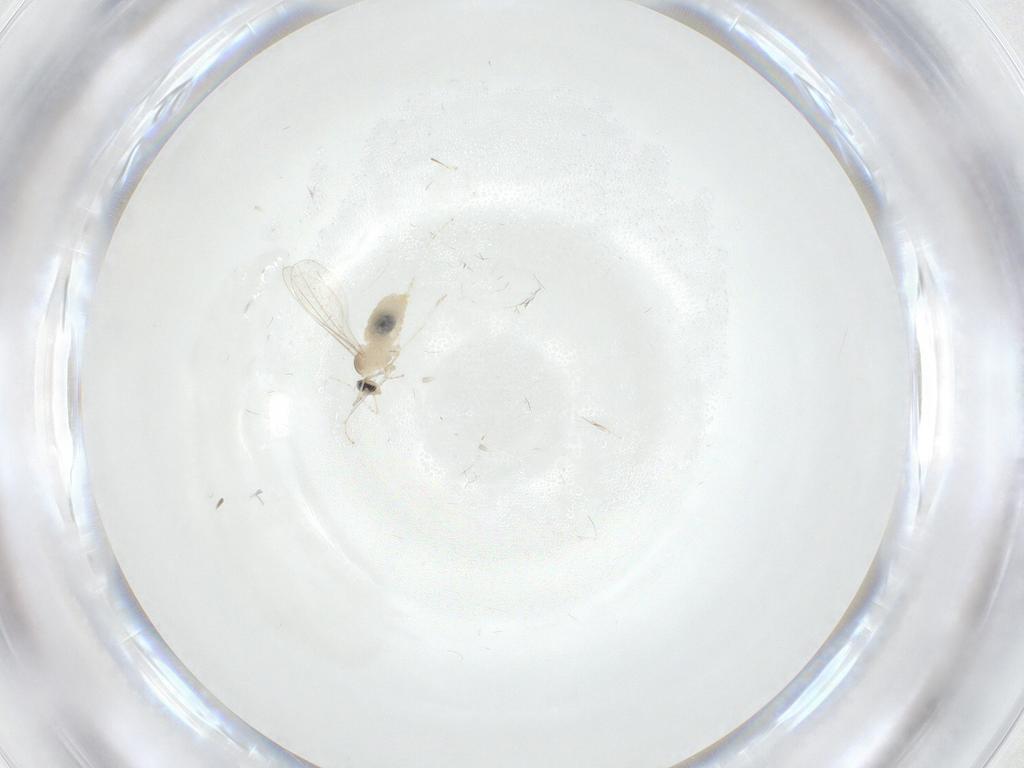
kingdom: Animalia
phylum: Arthropoda
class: Insecta
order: Diptera
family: Chironomidae
